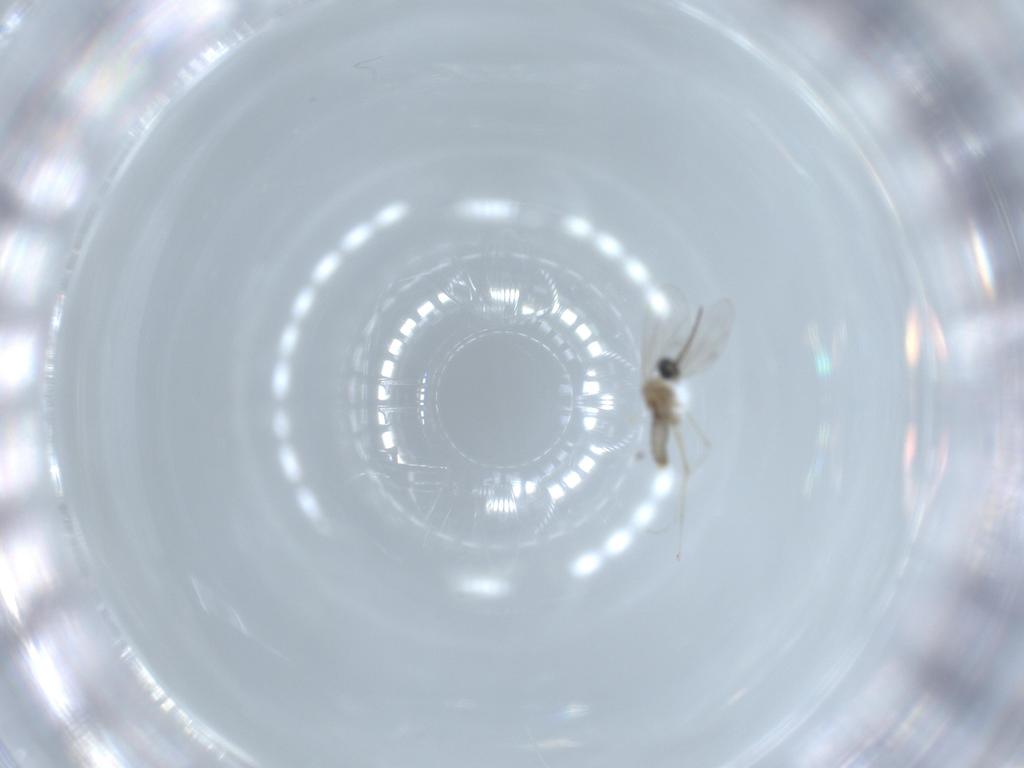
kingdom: Animalia
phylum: Arthropoda
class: Insecta
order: Diptera
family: Cecidomyiidae
